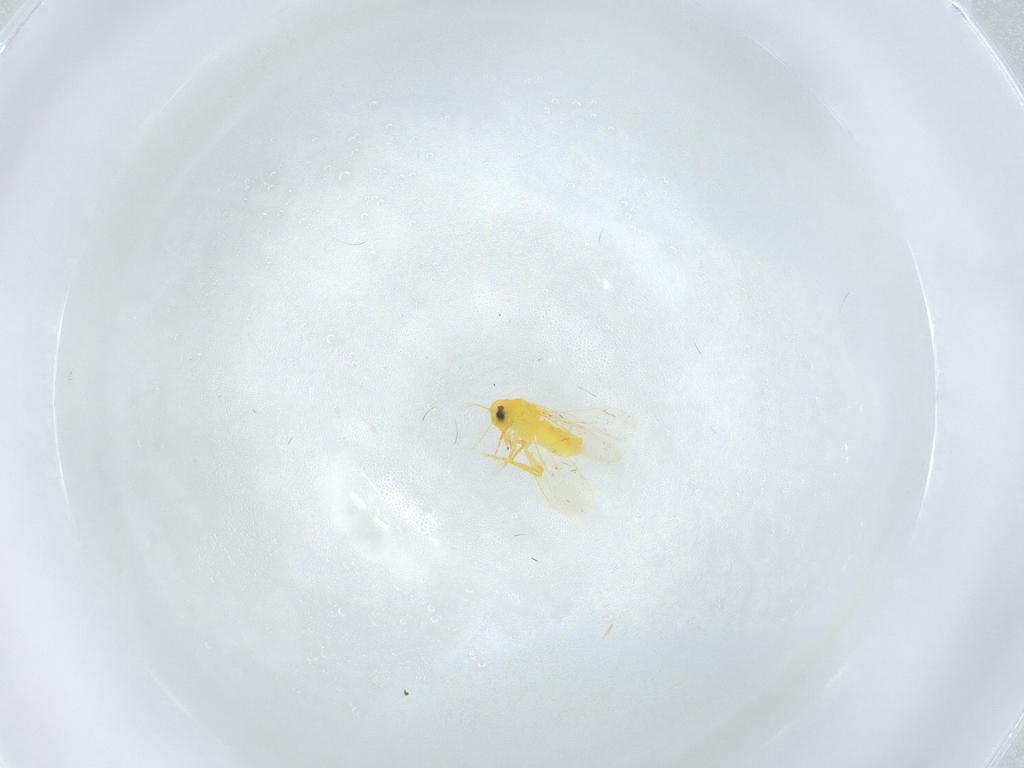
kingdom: Animalia
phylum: Arthropoda
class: Insecta
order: Hemiptera
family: Aleyrodidae
